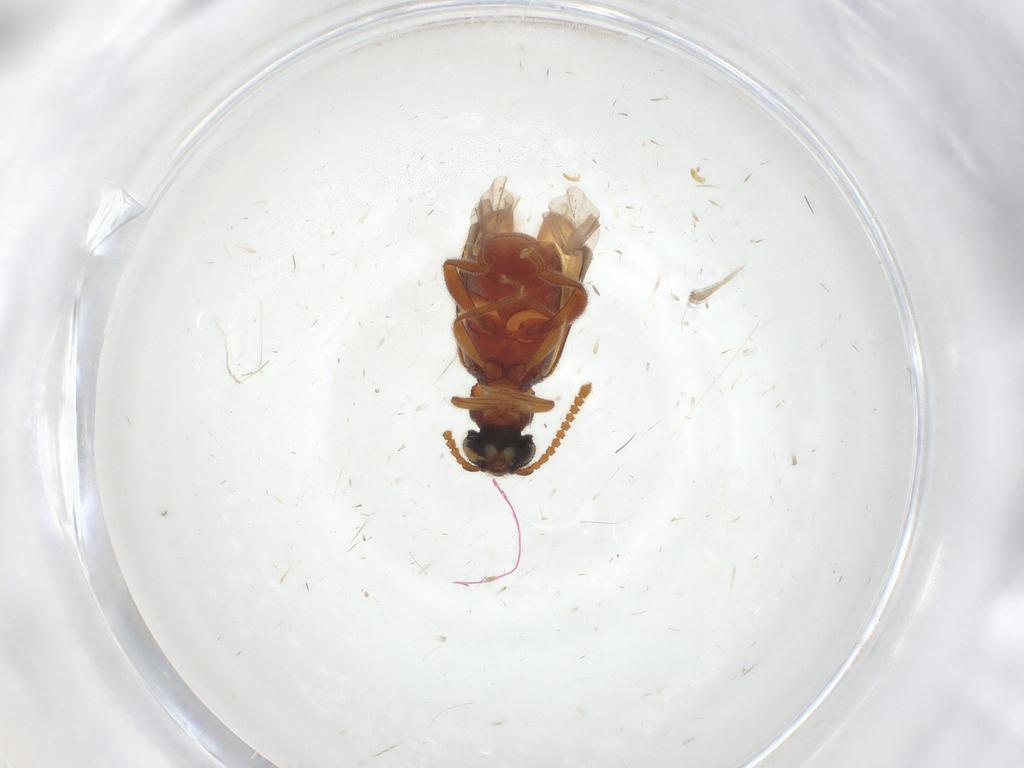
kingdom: Animalia
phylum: Arthropoda
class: Insecta
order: Coleoptera
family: Aderidae
